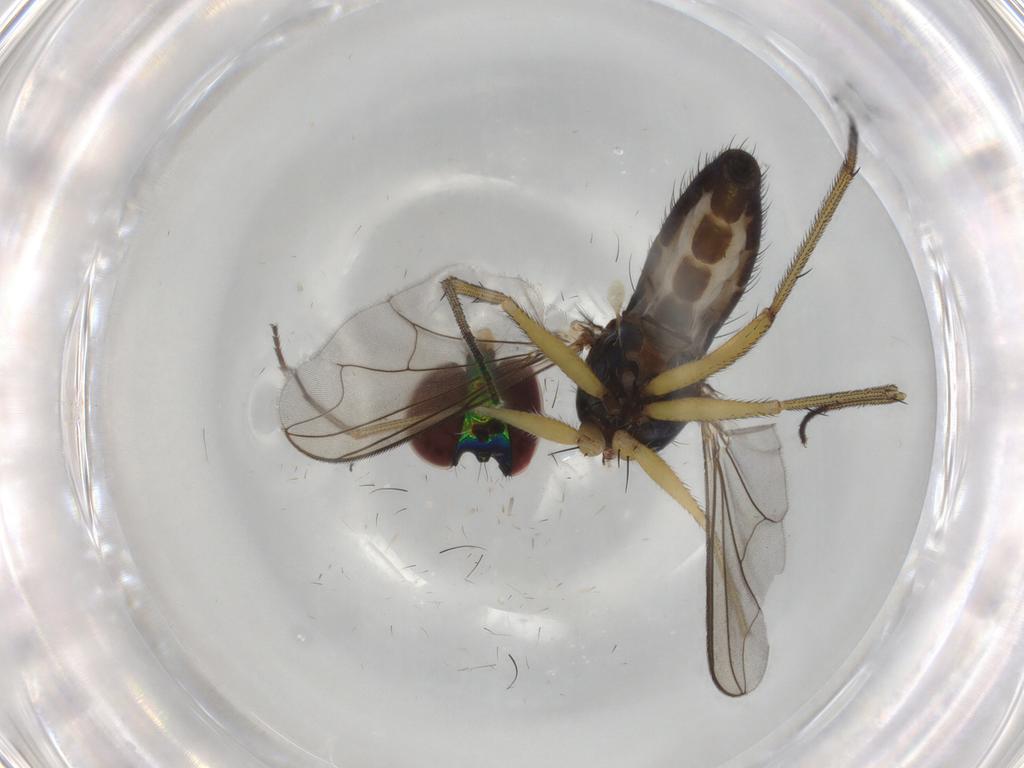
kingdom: Animalia
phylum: Arthropoda
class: Insecta
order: Diptera
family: Dolichopodidae
